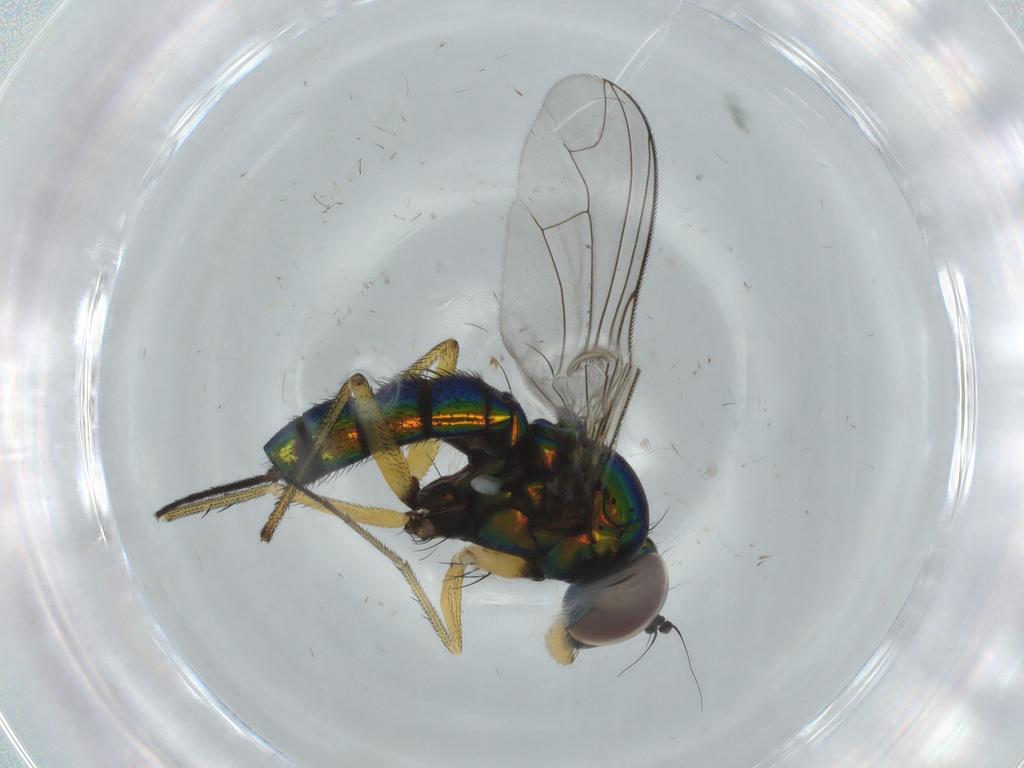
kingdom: Animalia
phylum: Arthropoda
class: Insecta
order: Diptera
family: Dolichopodidae
